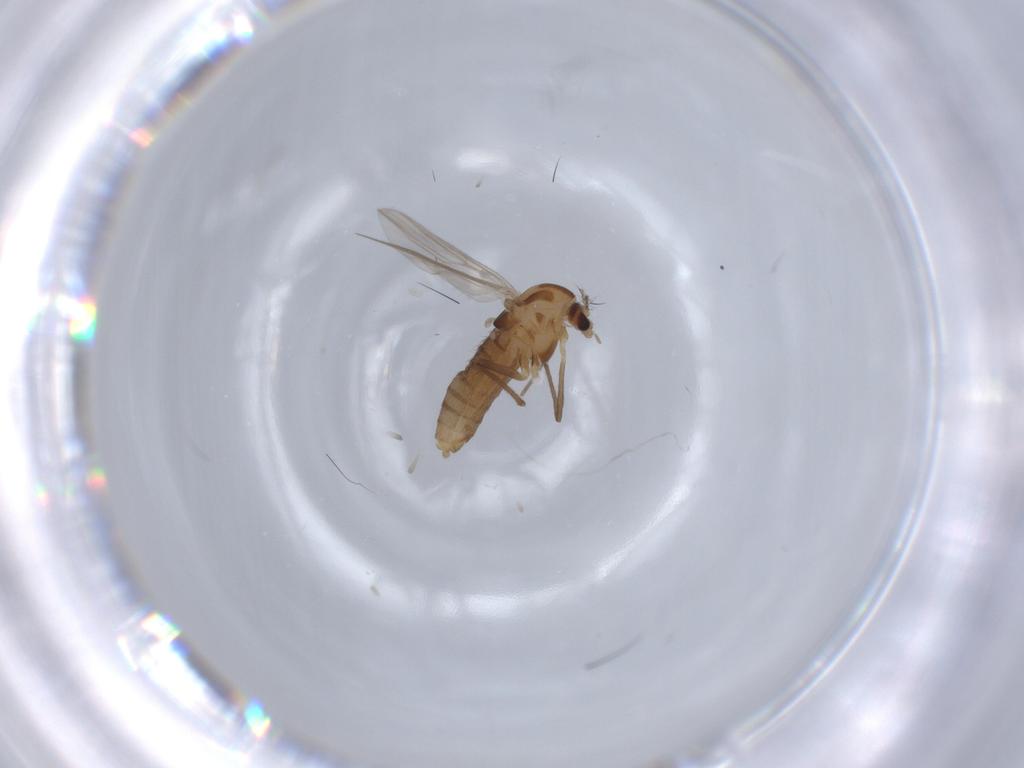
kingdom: Animalia
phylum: Arthropoda
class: Insecta
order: Diptera
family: Chironomidae
